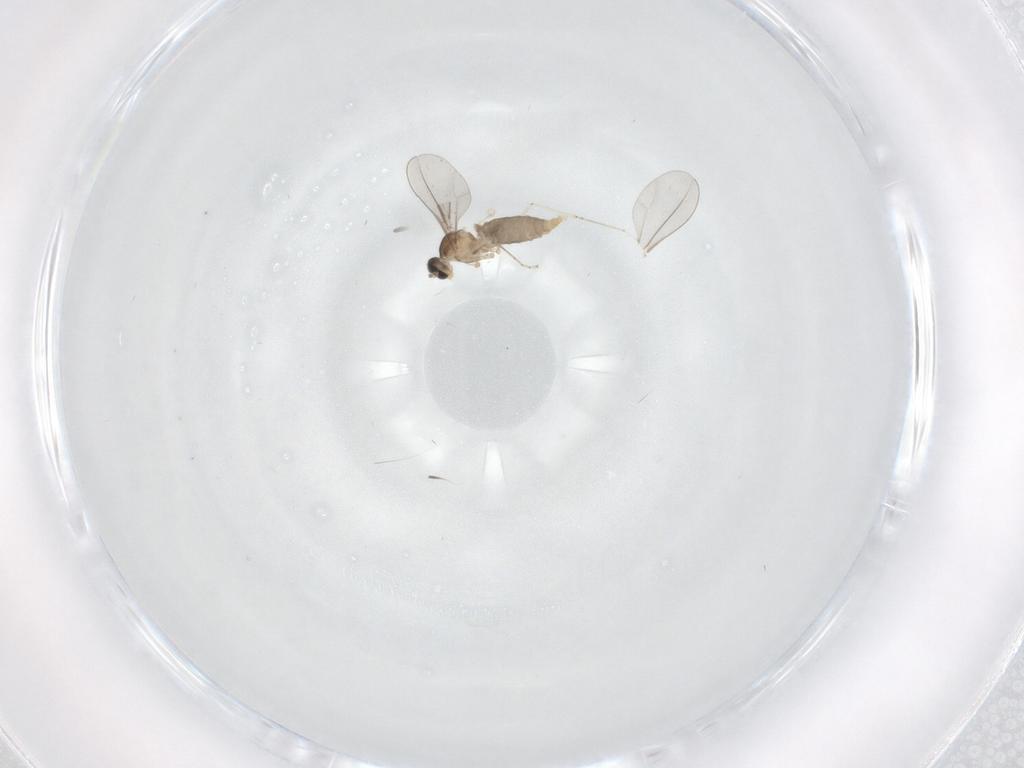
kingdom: Animalia
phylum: Arthropoda
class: Insecta
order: Diptera
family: Cecidomyiidae
